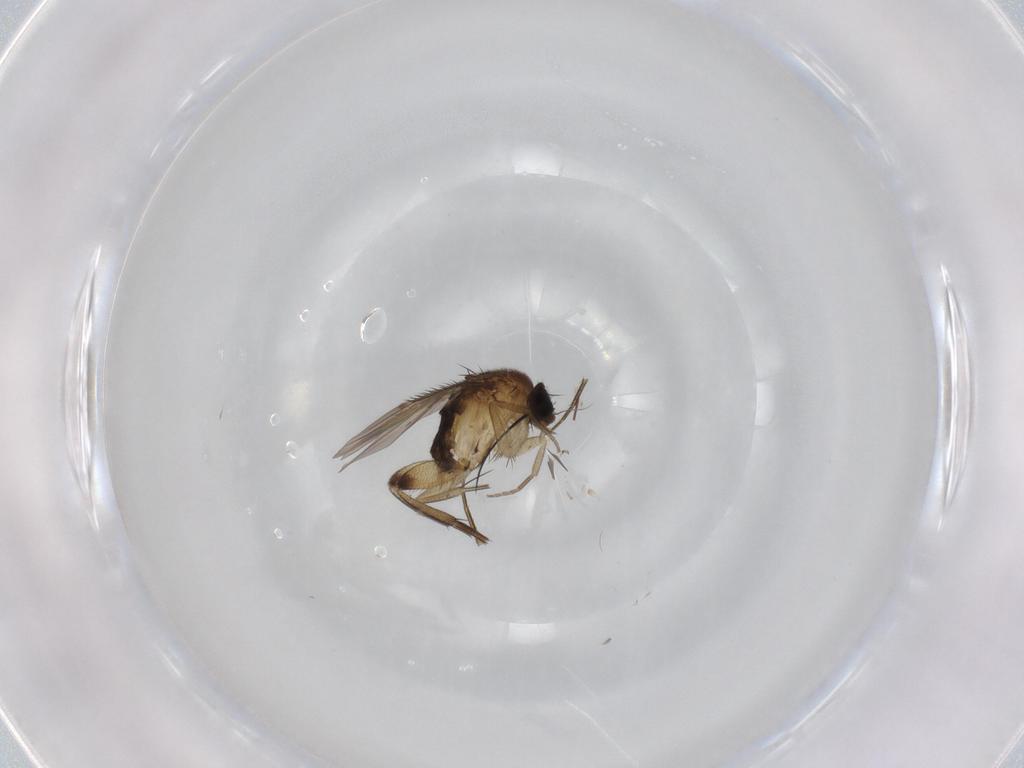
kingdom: Animalia
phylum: Arthropoda
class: Insecta
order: Diptera
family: Phoridae
